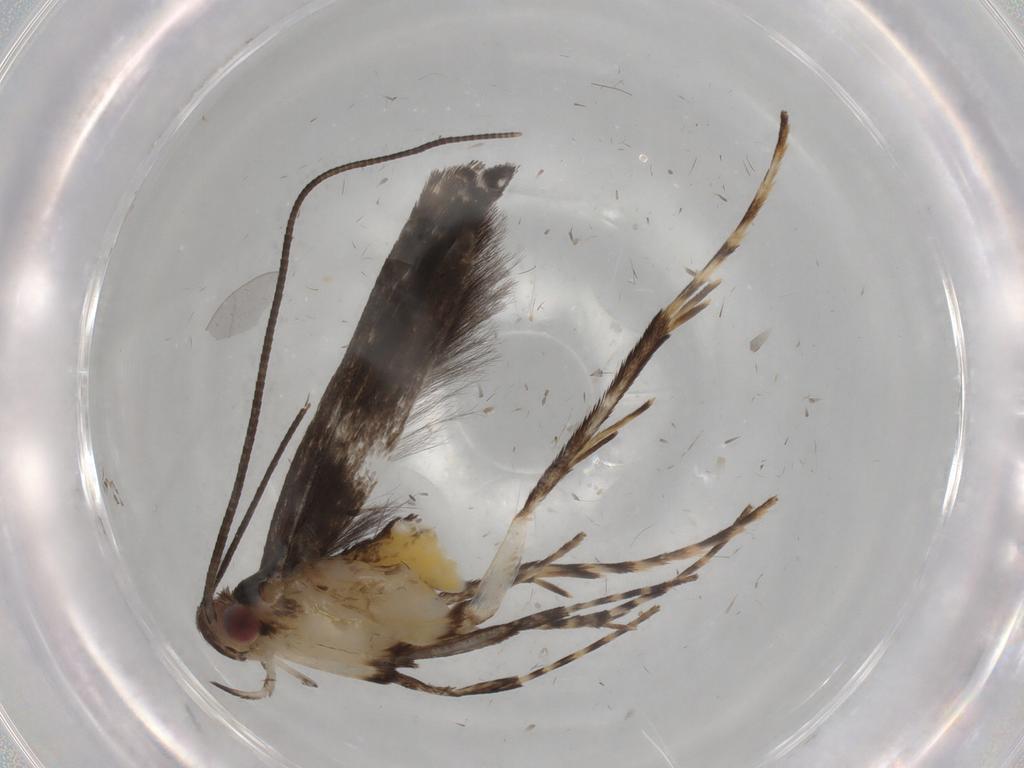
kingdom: Animalia
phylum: Arthropoda
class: Insecta
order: Lepidoptera
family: Gracillariidae
